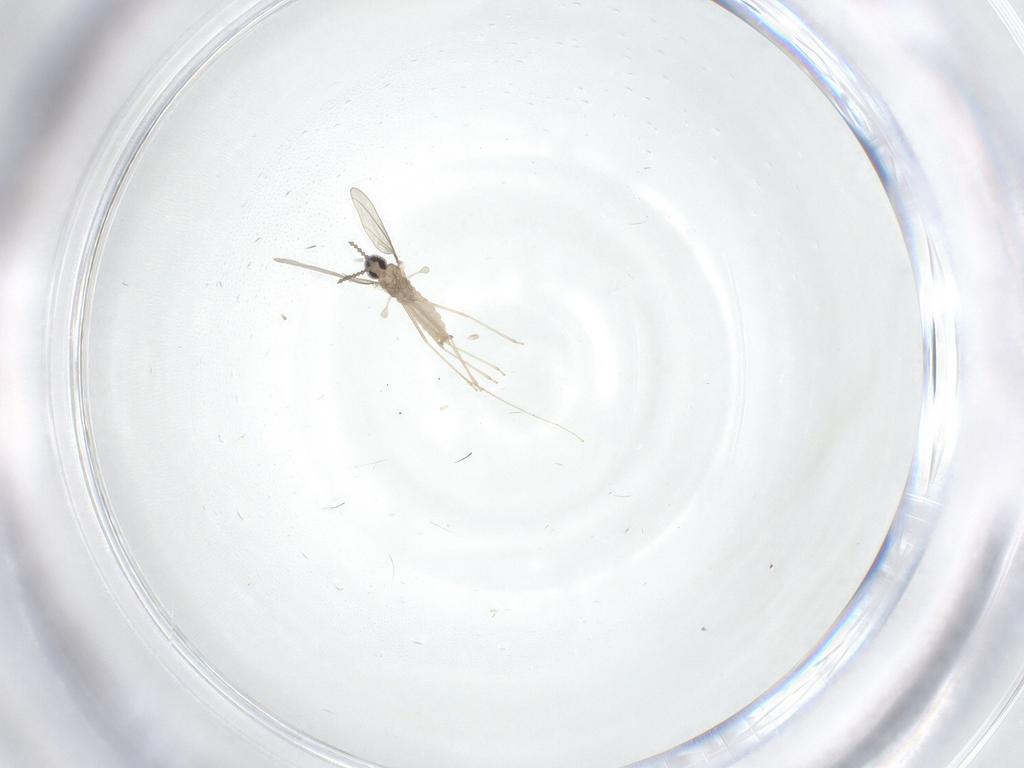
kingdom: Animalia
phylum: Arthropoda
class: Insecta
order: Diptera
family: Cecidomyiidae
